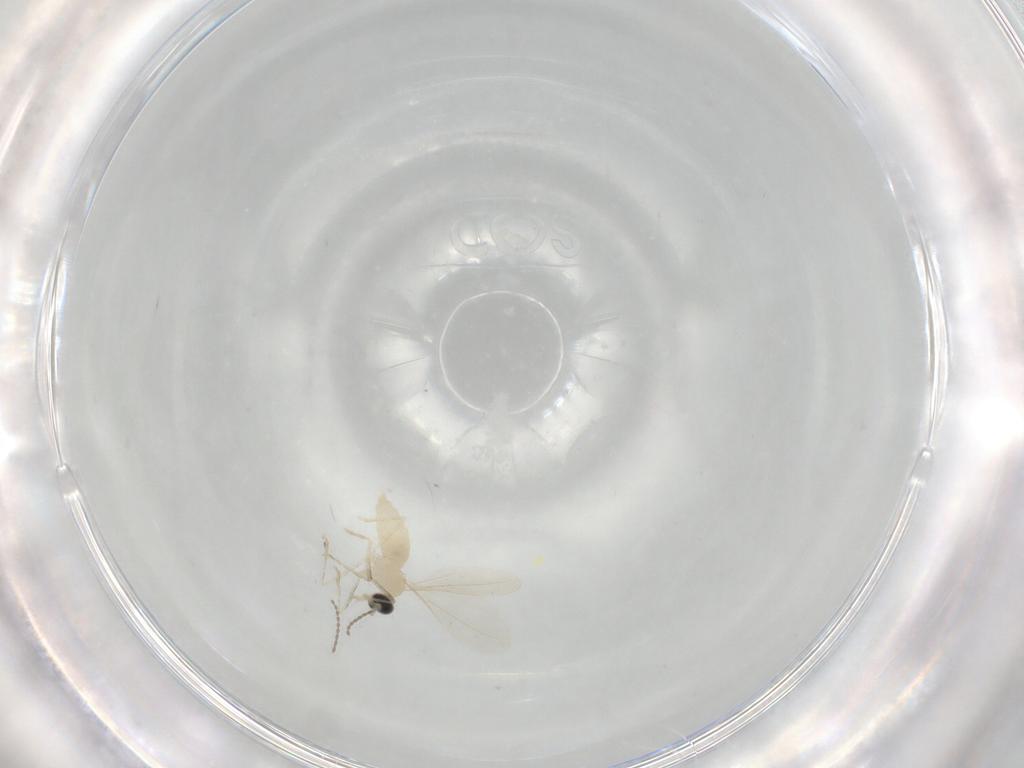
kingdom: Animalia
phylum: Arthropoda
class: Insecta
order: Diptera
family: Cecidomyiidae
